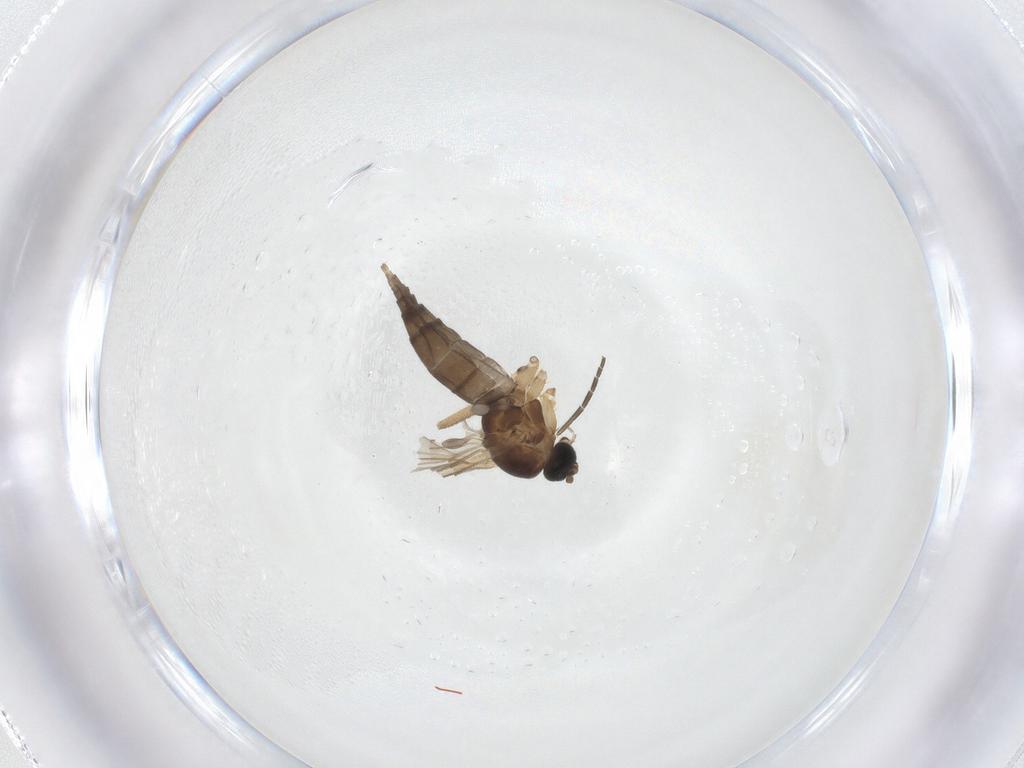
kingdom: Animalia
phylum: Arthropoda
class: Insecta
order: Diptera
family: Sciaridae
